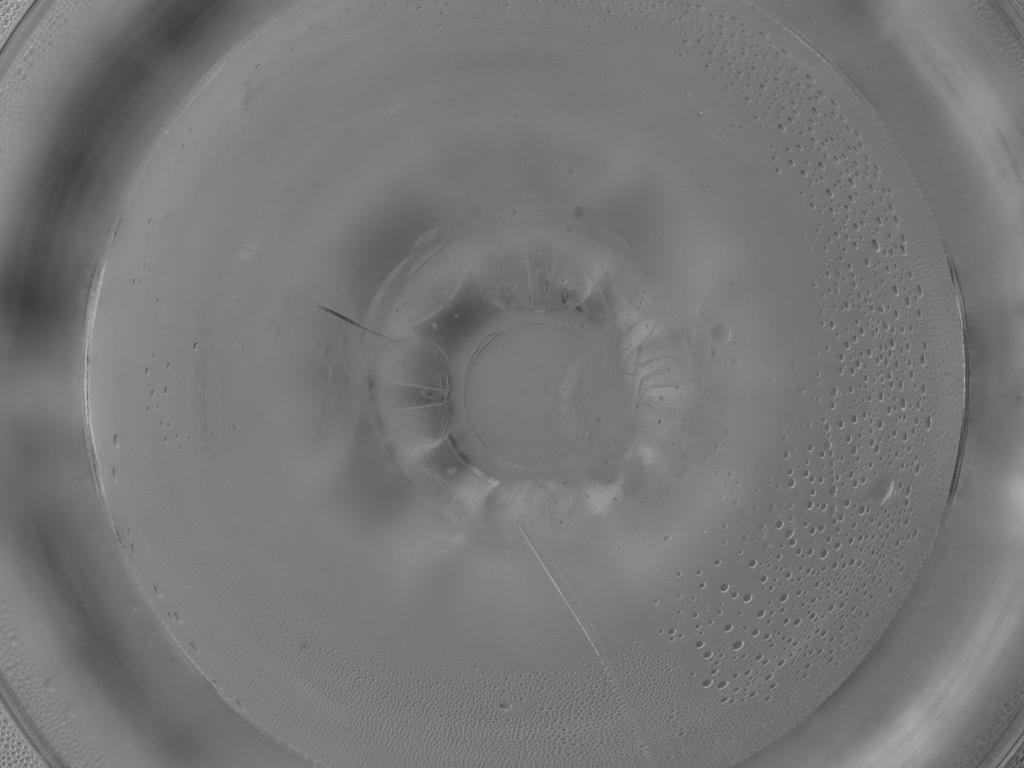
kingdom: Animalia
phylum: Arthropoda
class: Insecta
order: Diptera
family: Cecidomyiidae
